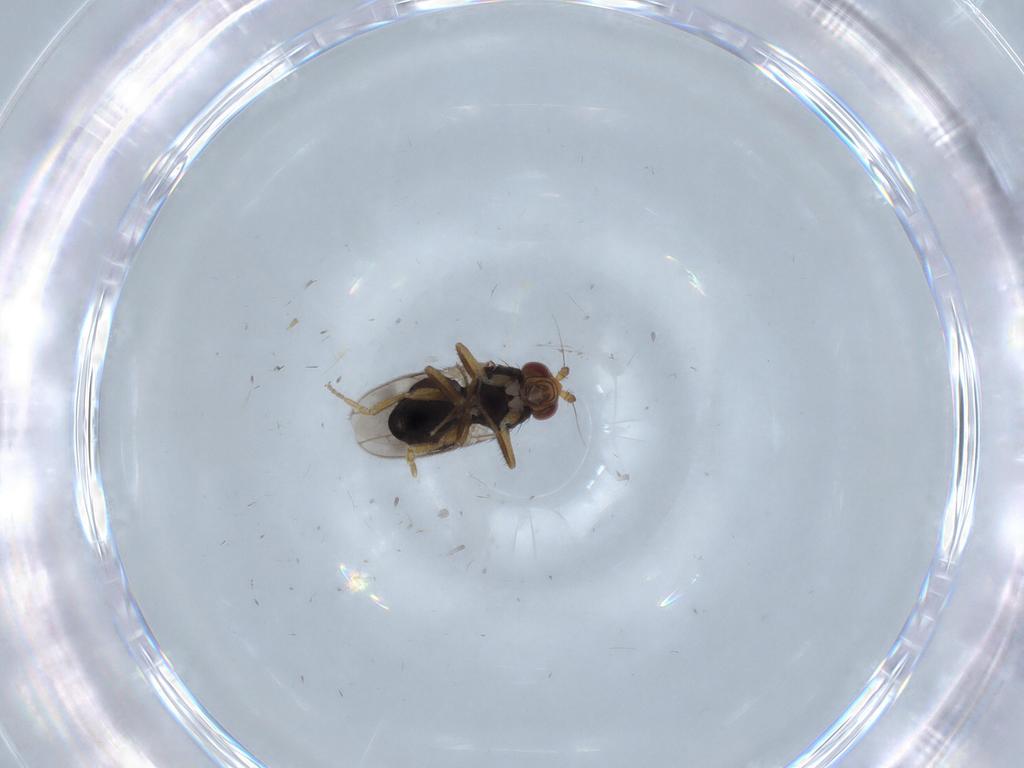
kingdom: Animalia
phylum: Arthropoda
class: Insecta
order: Diptera
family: Sphaeroceridae
